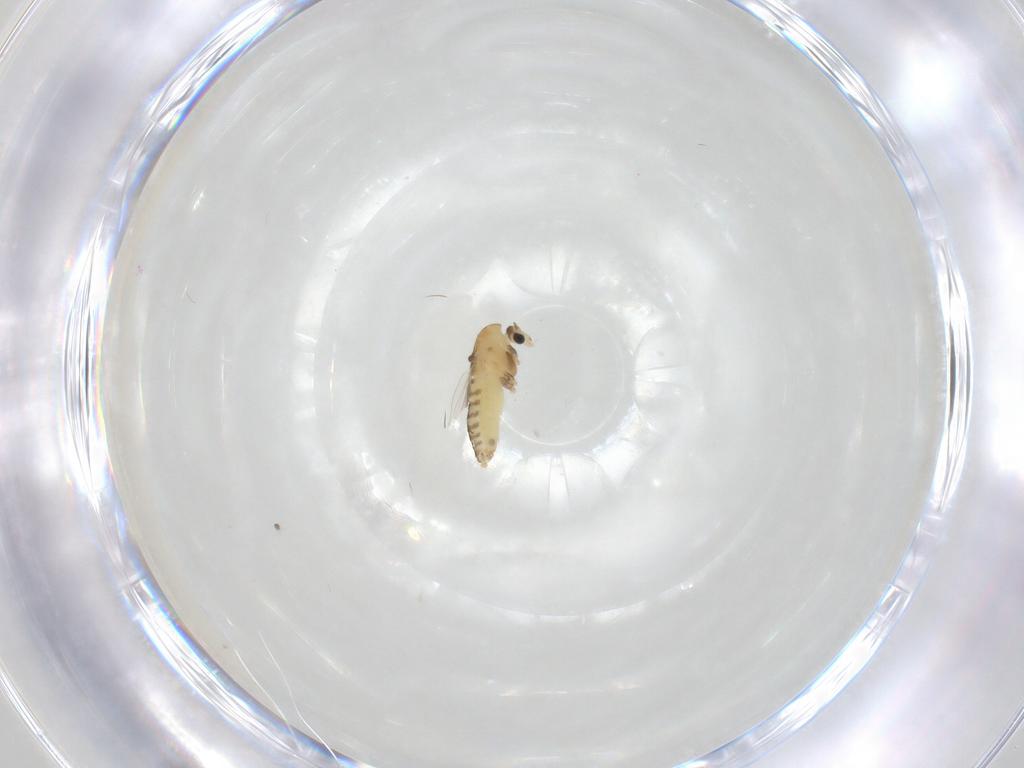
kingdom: Animalia
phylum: Arthropoda
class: Insecta
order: Diptera
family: Chironomidae
